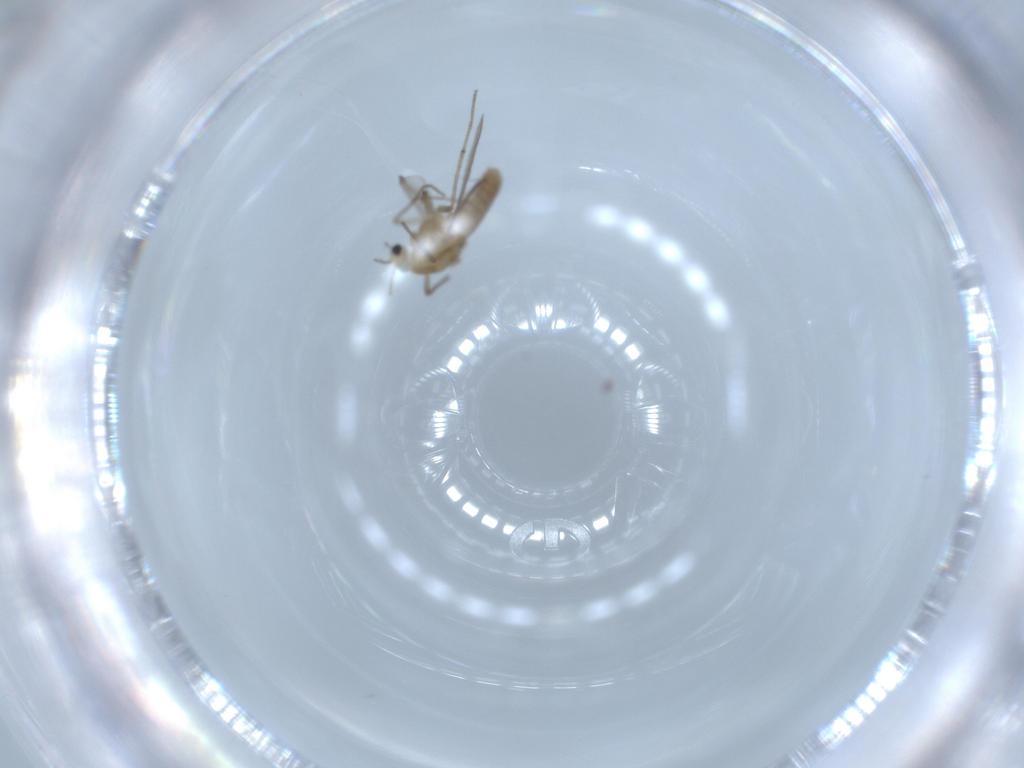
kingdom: Animalia
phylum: Arthropoda
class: Insecta
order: Diptera
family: Chironomidae
